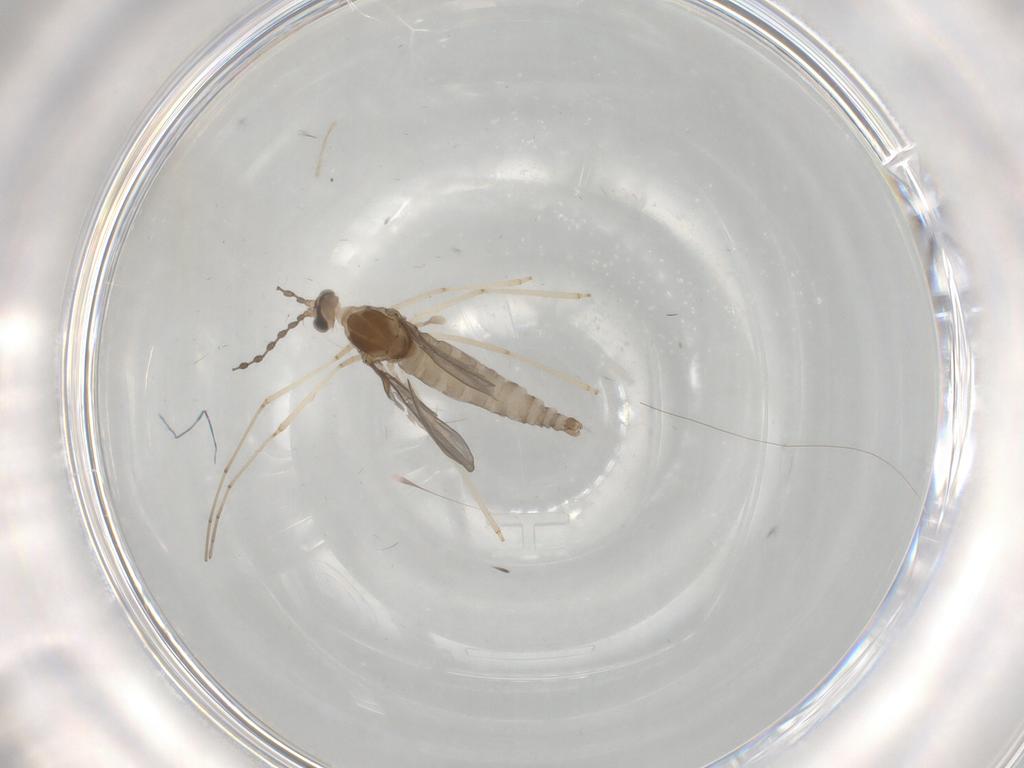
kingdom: Animalia
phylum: Arthropoda
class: Insecta
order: Diptera
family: Cecidomyiidae
